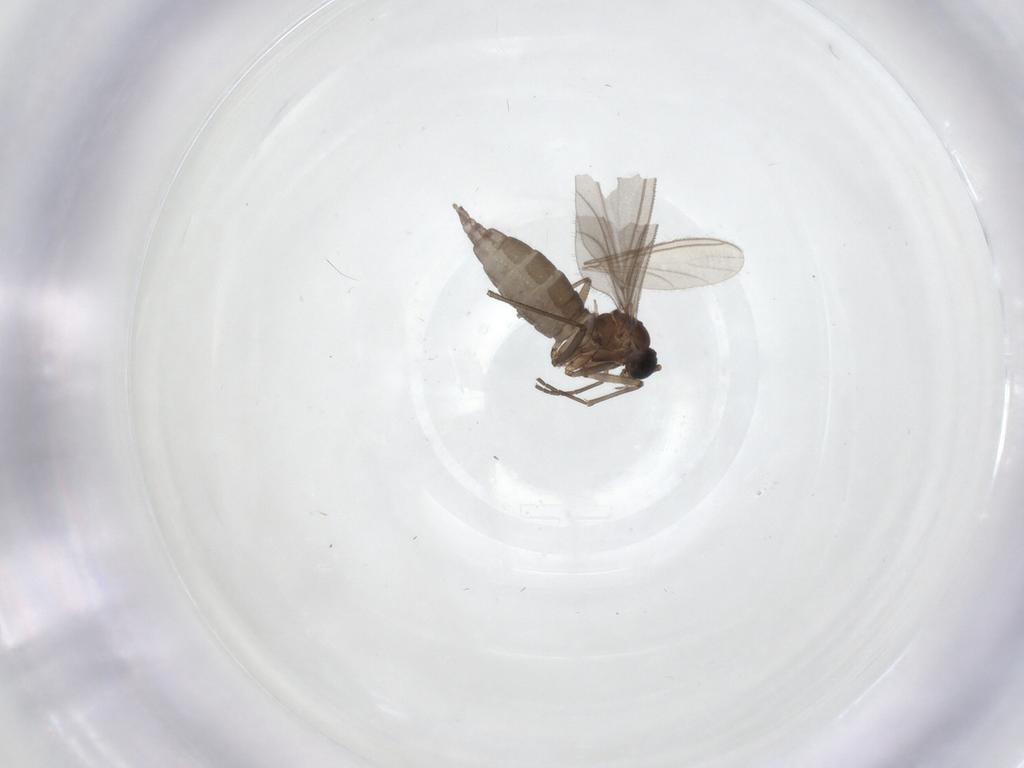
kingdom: Animalia
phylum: Arthropoda
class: Insecta
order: Diptera
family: Sciaridae
